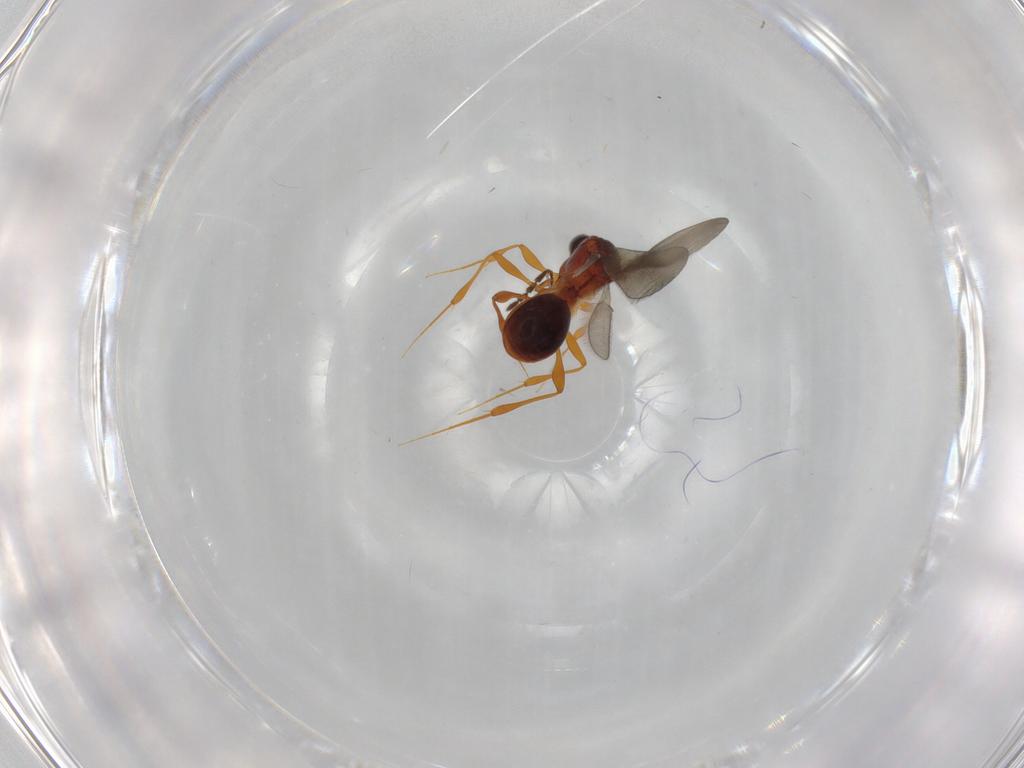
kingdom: Animalia
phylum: Arthropoda
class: Insecta
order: Hymenoptera
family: Platygastridae
